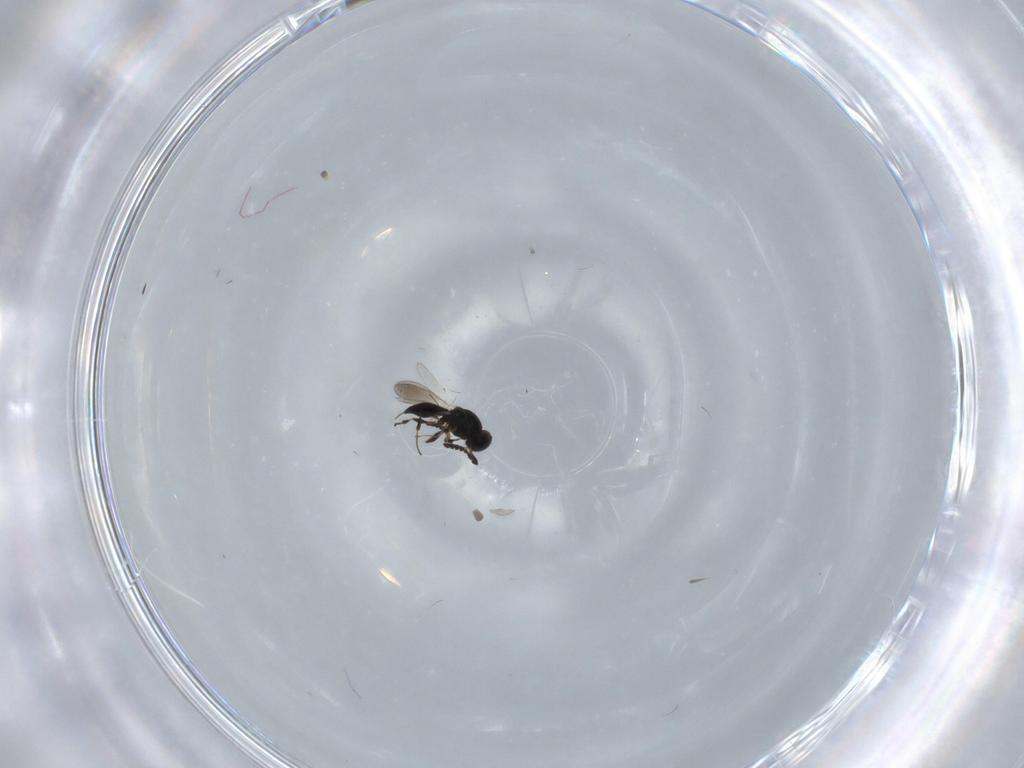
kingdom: Animalia
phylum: Arthropoda
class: Insecta
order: Hymenoptera
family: Platygastridae
